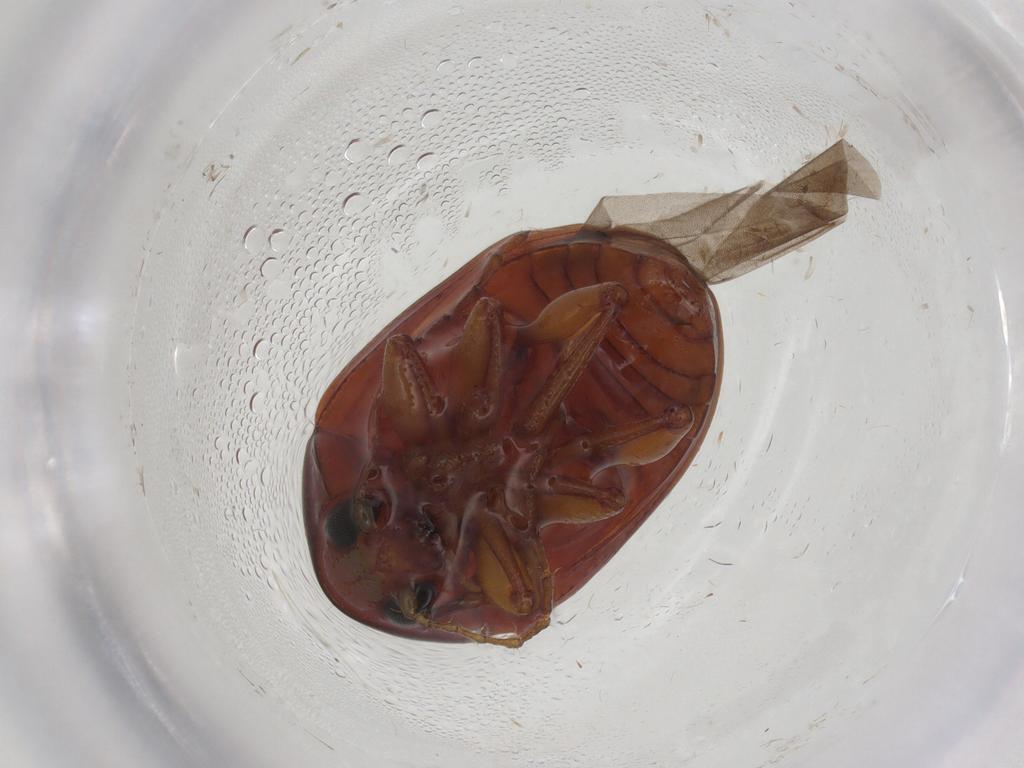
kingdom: Animalia
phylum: Arthropoda
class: Insecta
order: Coleoptera
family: Chrysomelidae
